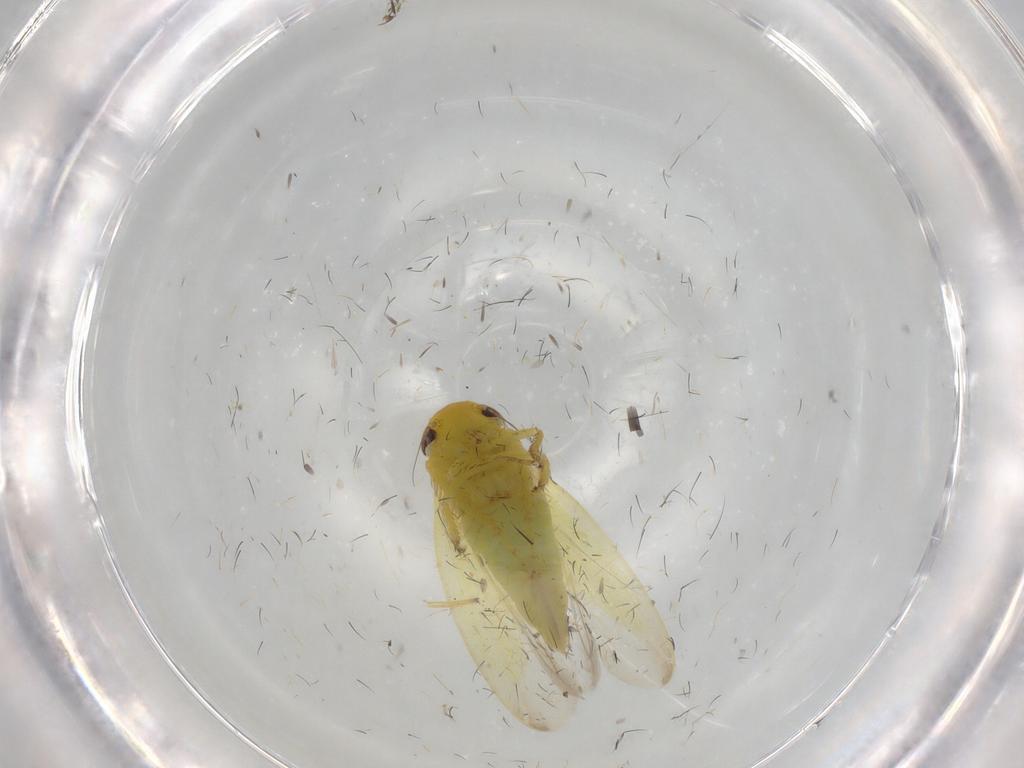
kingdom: Animalia
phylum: Arthropoda
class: Insecta
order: Hemiptera
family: Cicadellidae
